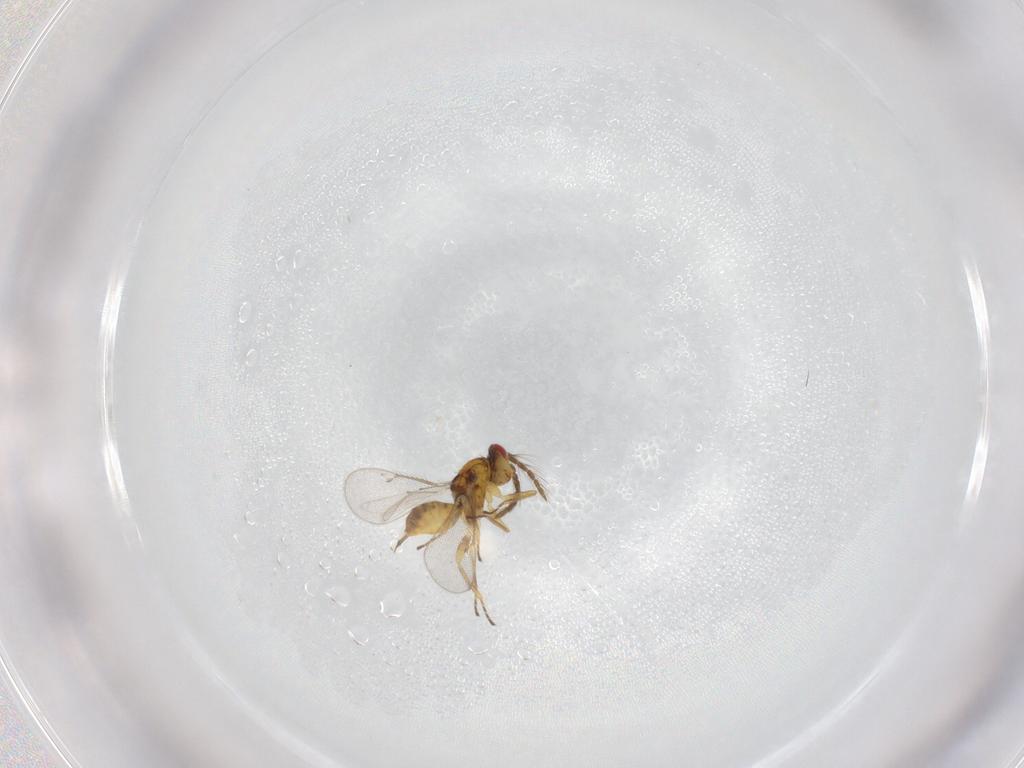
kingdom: Animalia
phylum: Arthropoda
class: Insecta
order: Hymenoptera
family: Eulophidae
